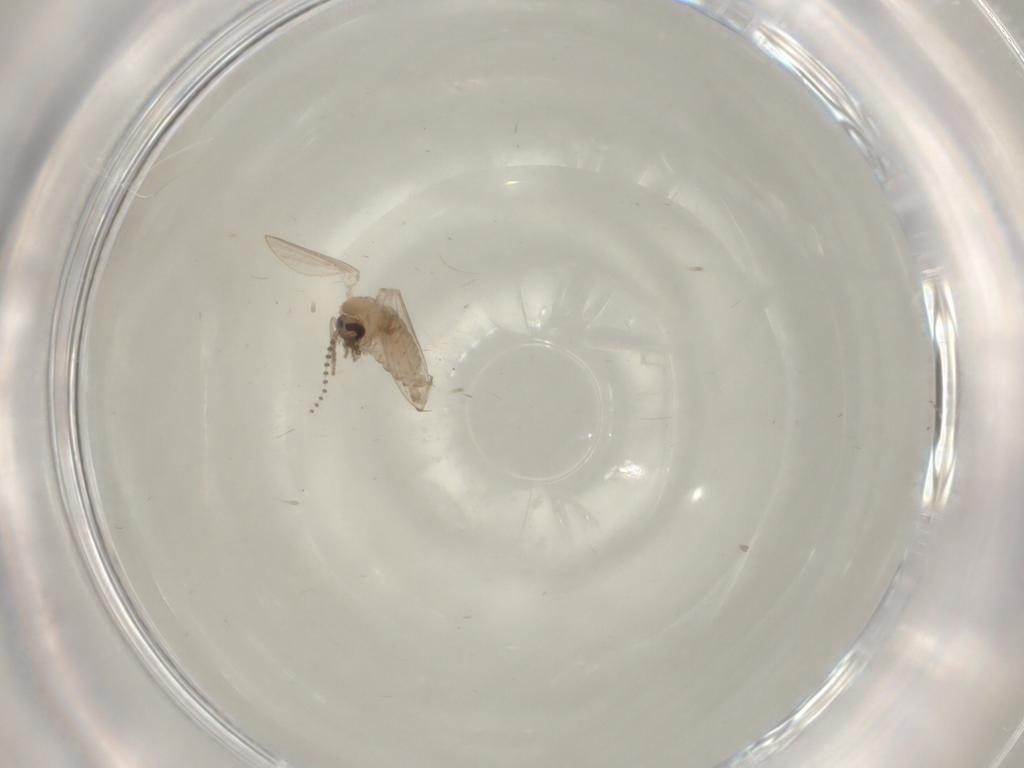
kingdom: Animalia
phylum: Arthropoda
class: Insecta
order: Diptera
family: Psychodidae
